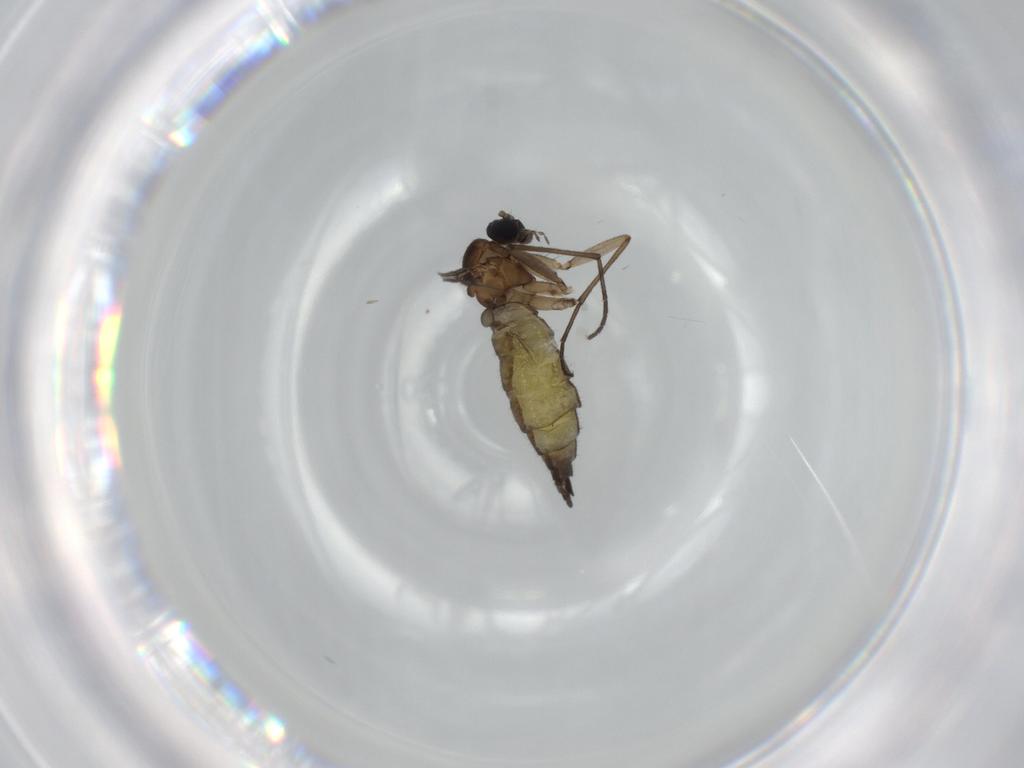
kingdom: Animalia
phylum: Arthropoda
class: Insecta
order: Diptera
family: Sciaridae
